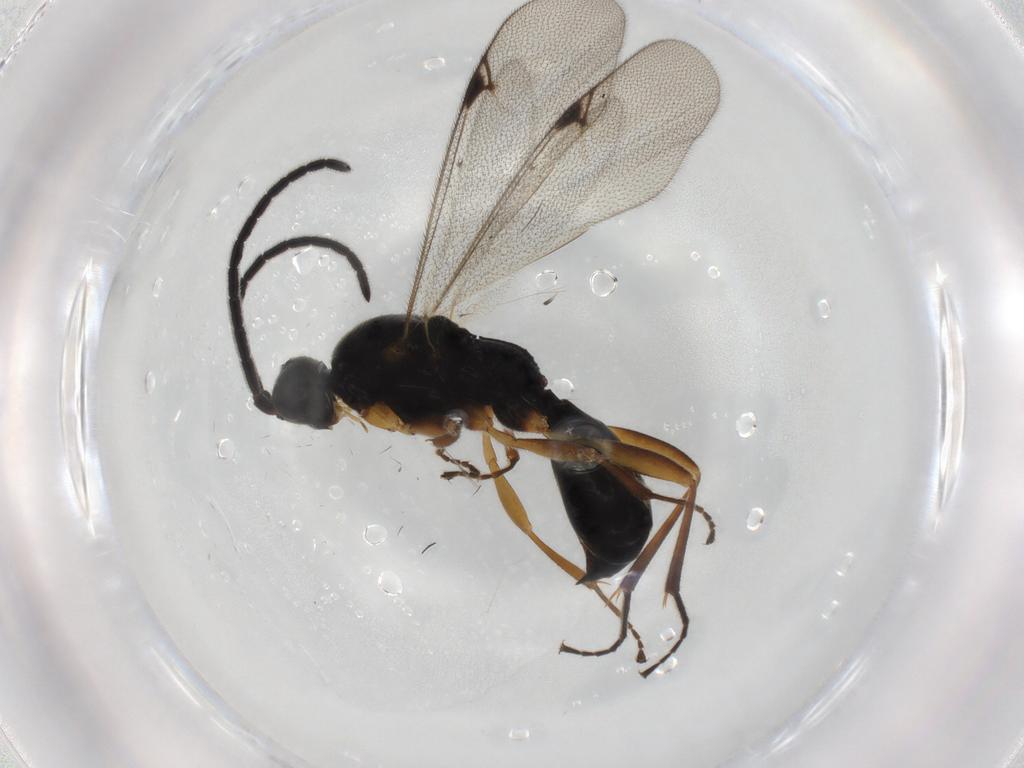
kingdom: Animalia
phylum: Arthropoda
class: Insecta
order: Hymenoptera
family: Proctotrupidae
